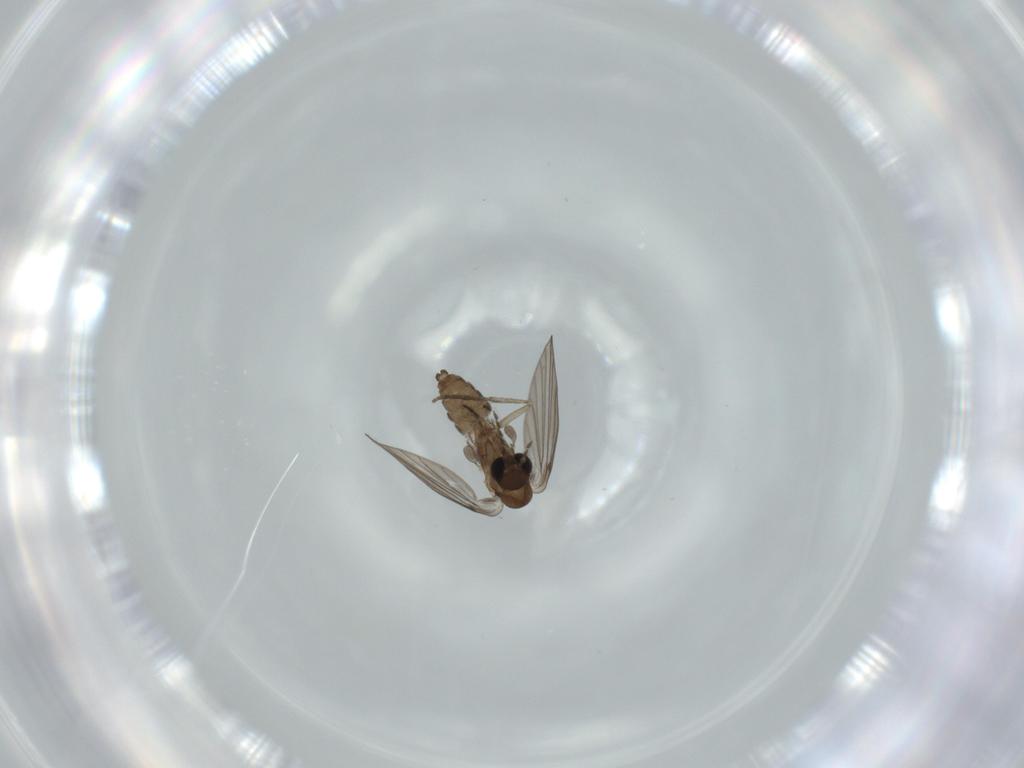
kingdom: Animalia
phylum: Arthropoda
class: Insecta
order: Diptera
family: Psychodidae
